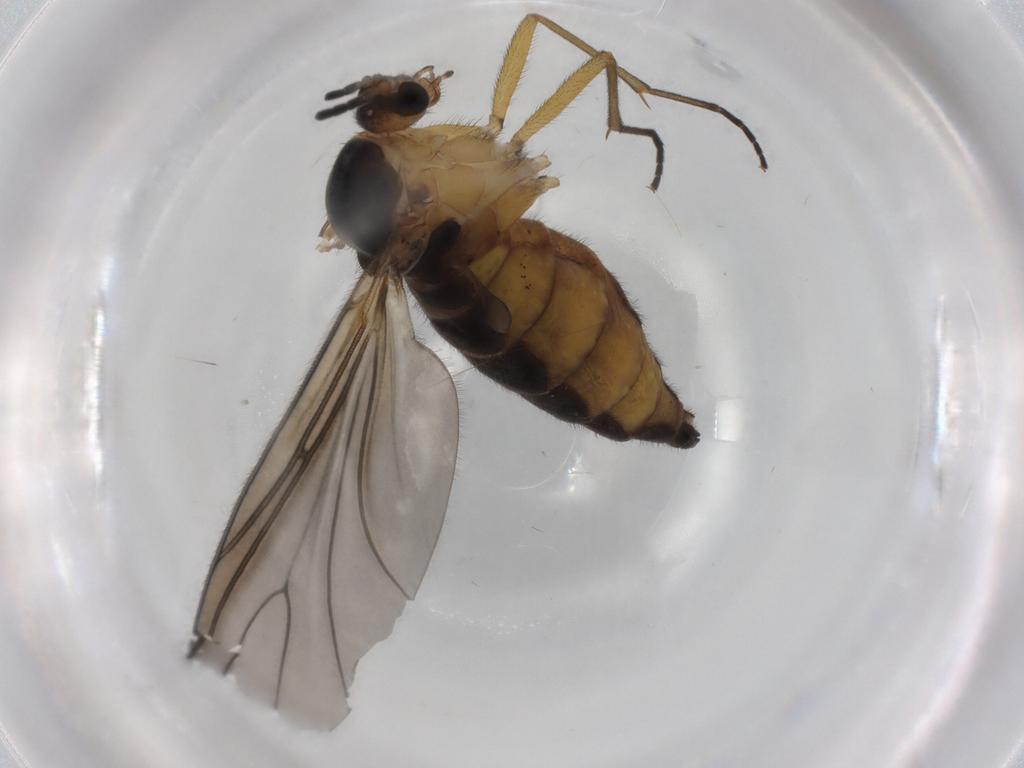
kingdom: Animalia
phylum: Arthropoda
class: Insecta
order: Diptera
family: Sciaridae
